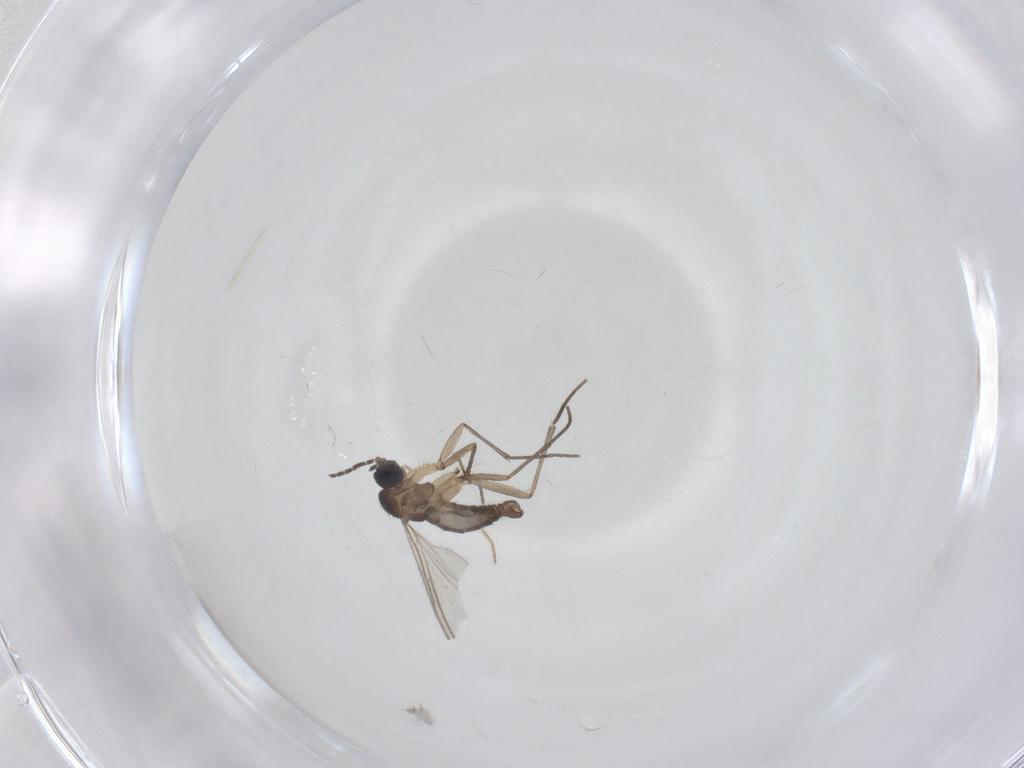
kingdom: Animalia
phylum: Arthropoda
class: Insecta
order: Diptera
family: Sciaridae
